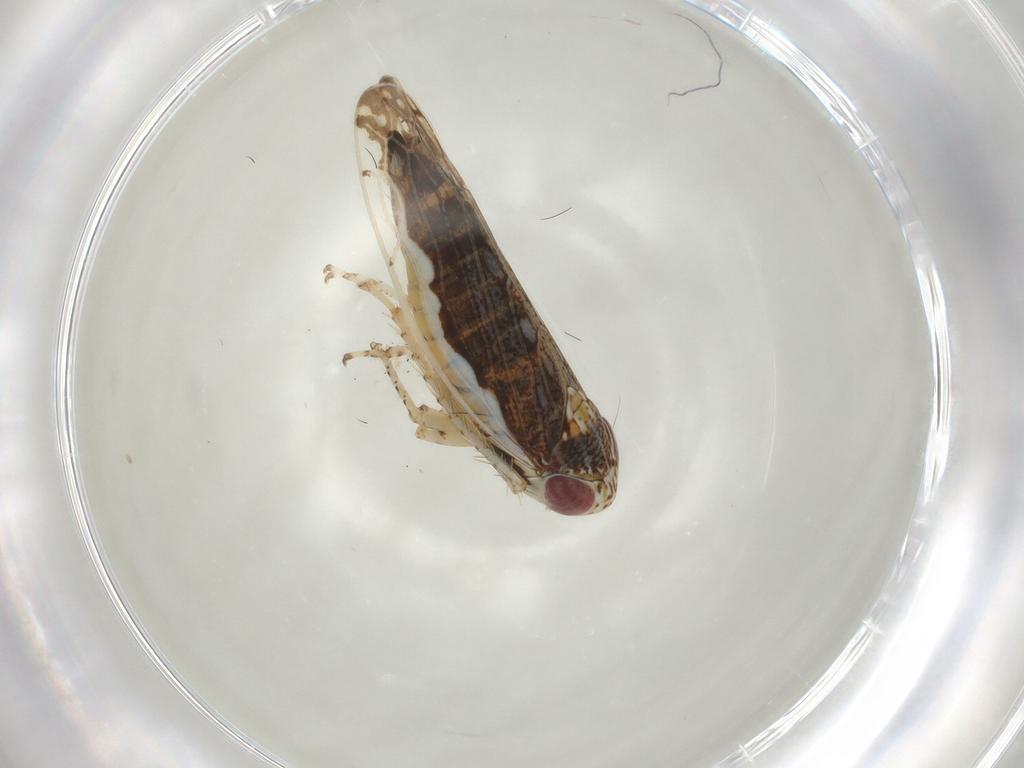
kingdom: Animalia
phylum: Arthropoda
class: Insecta
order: Hemiptera
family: Cicadellidae
